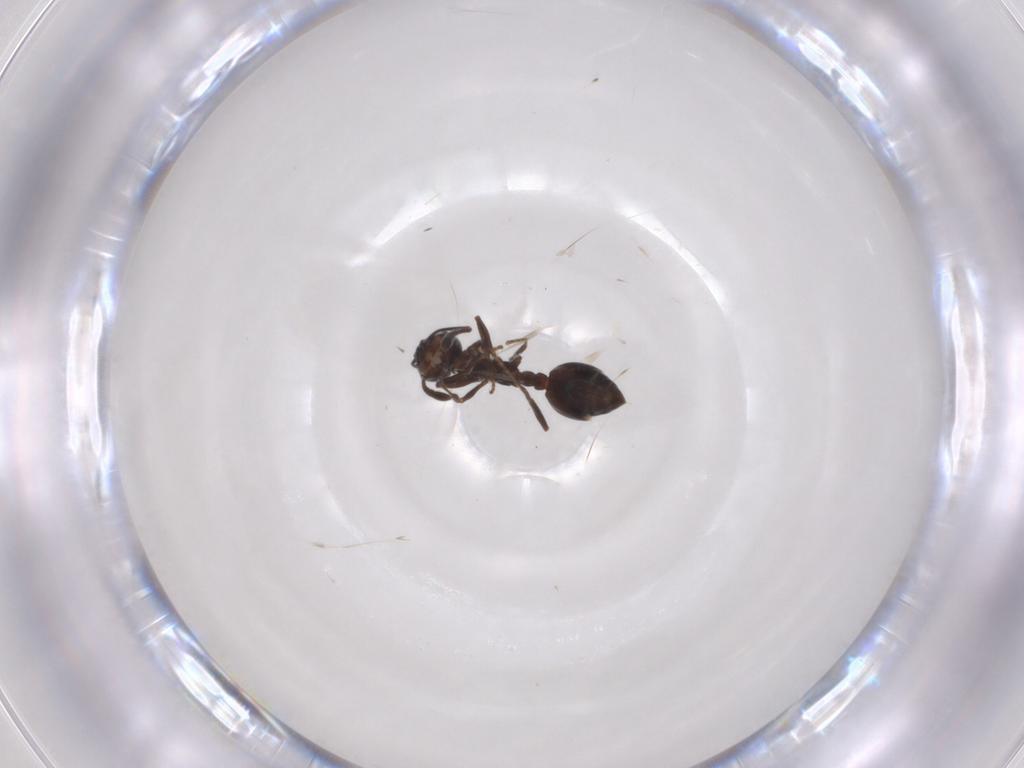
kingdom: Animalia
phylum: Arthropoda
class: Insecta
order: Hymenoptera
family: Formicidae
